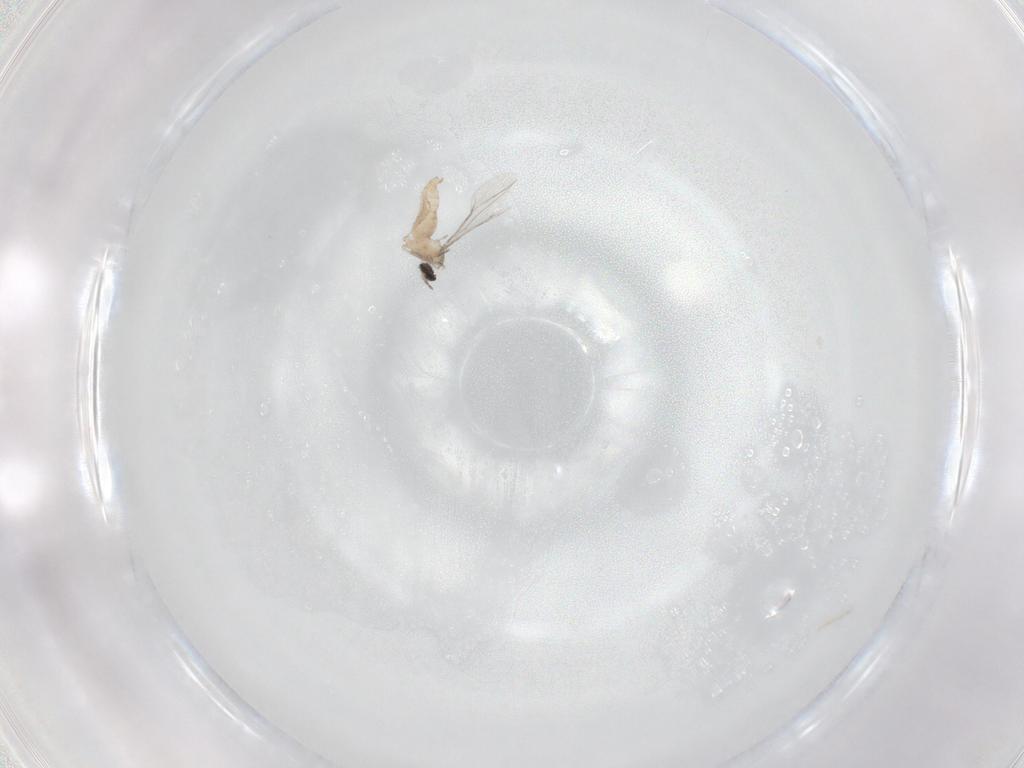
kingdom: Animalia
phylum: Arthropoda
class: Insecta
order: Diptera
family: Cecidomyiidae
